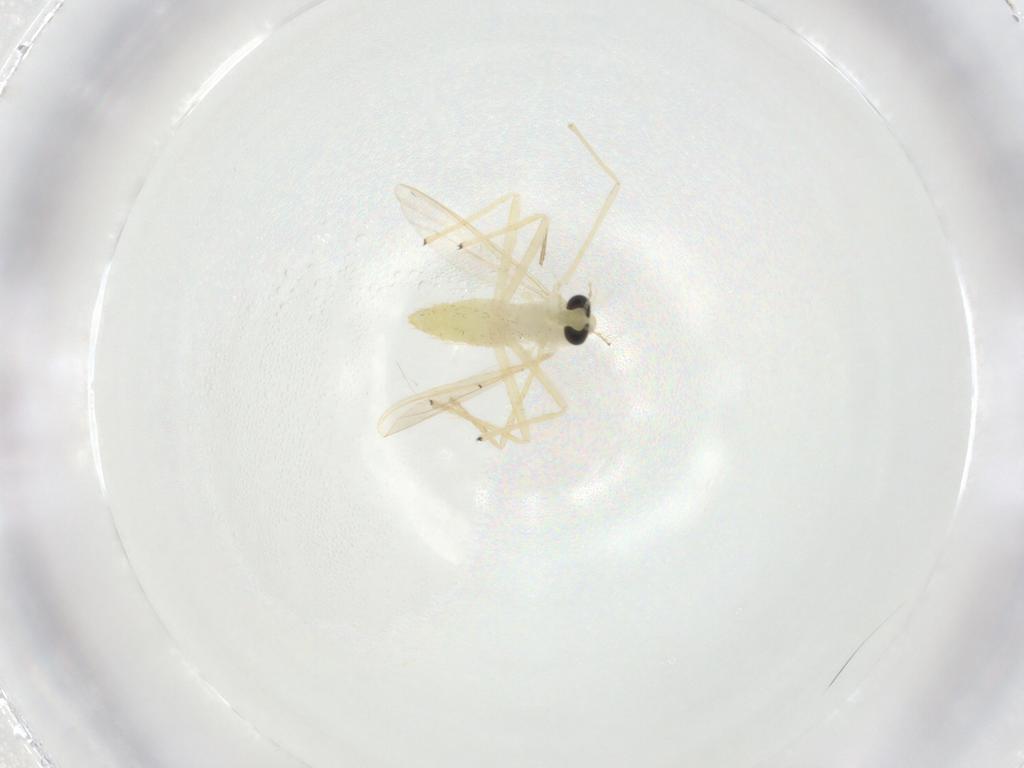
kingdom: Animalia
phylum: Arthropoda
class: Insecta
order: Diptera
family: Chironomidae
